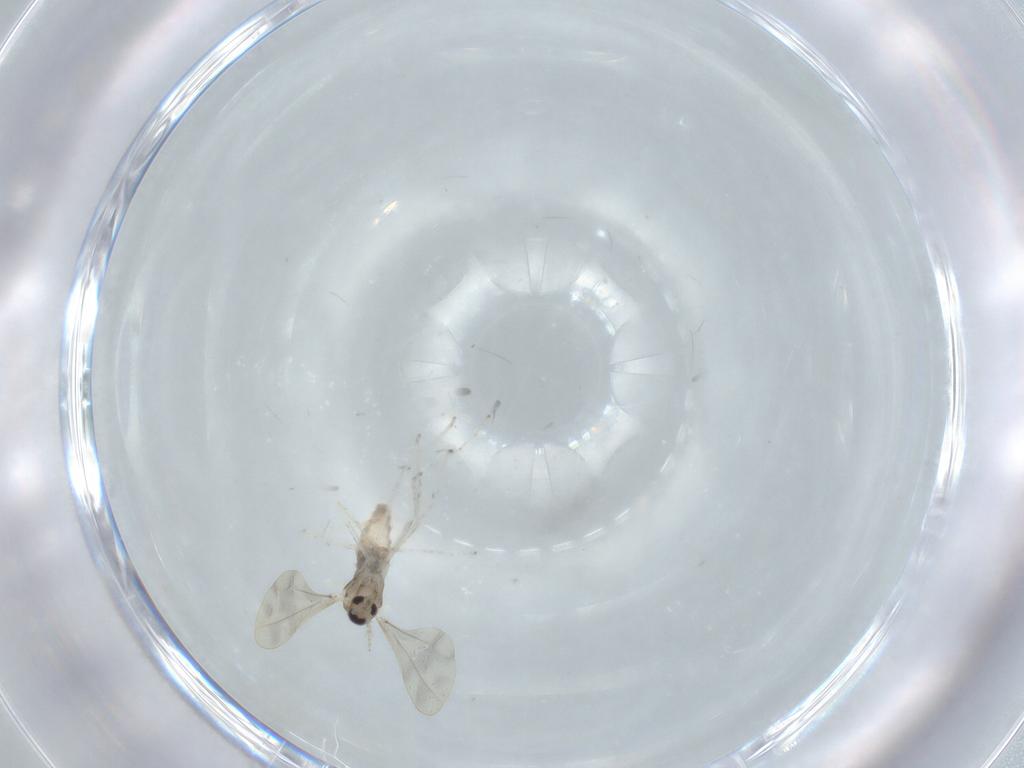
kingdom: Animalia
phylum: Arthropoda
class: Insecta
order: Diptera
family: Cecidomyiidae
